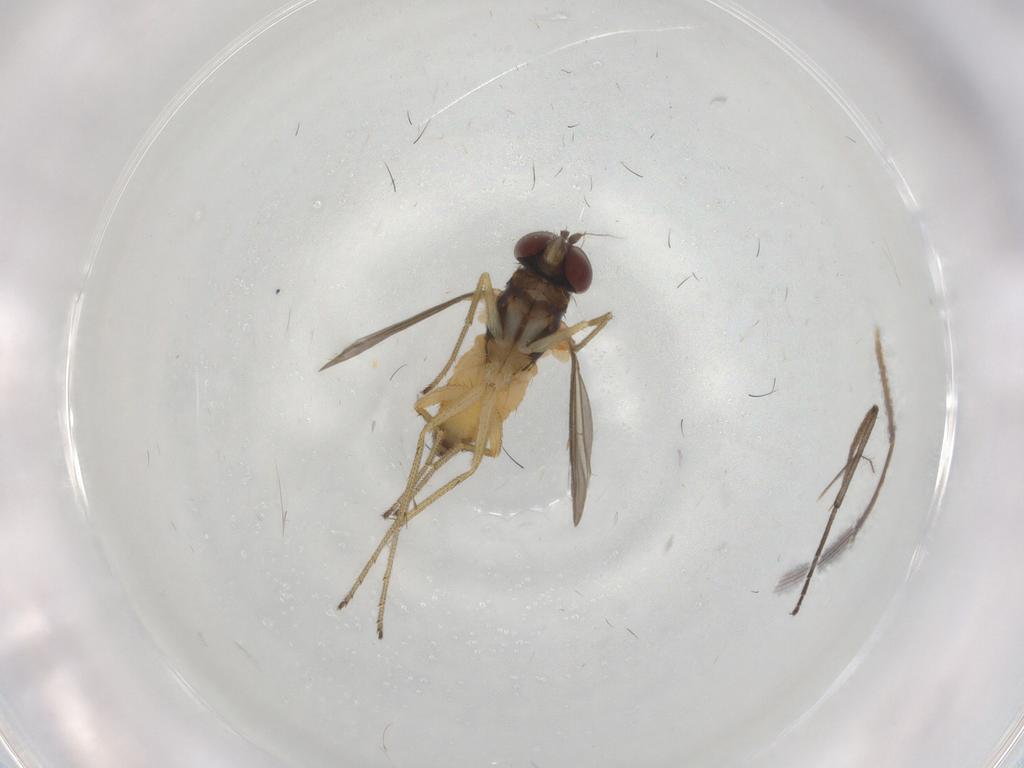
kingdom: Animalia
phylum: Arthropoda
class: Insecta
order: Diptera
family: Dolichopodidae
